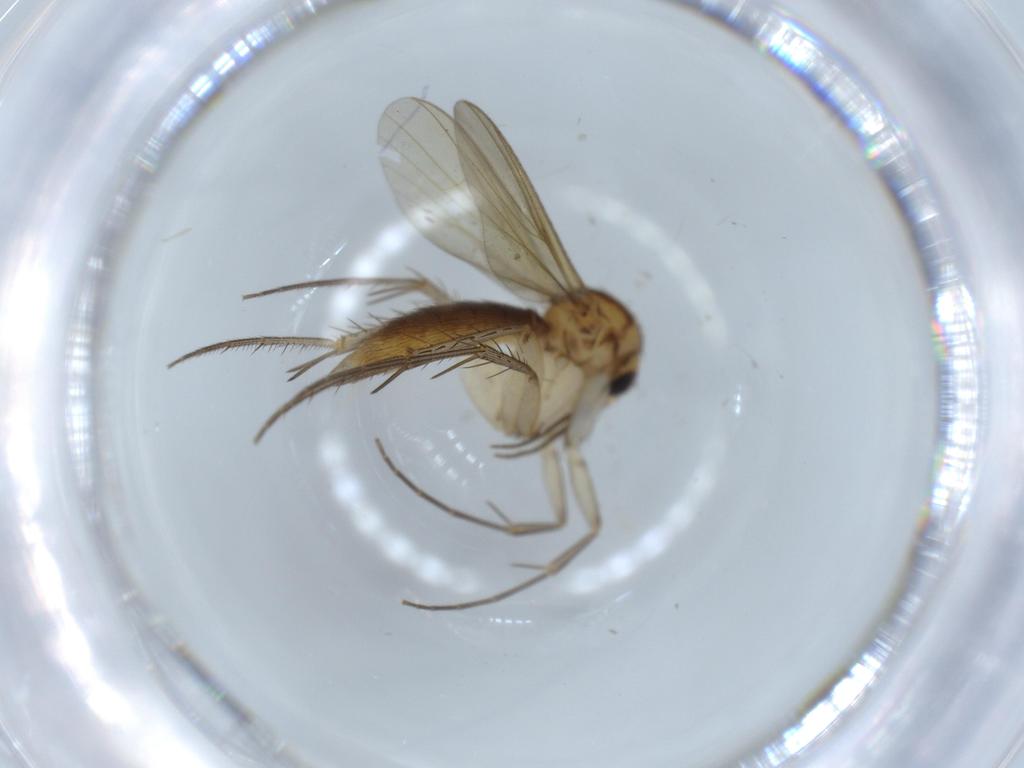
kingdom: Animalia
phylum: Arthropoda
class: Insecta
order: Diptera
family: Mycetophilidae
